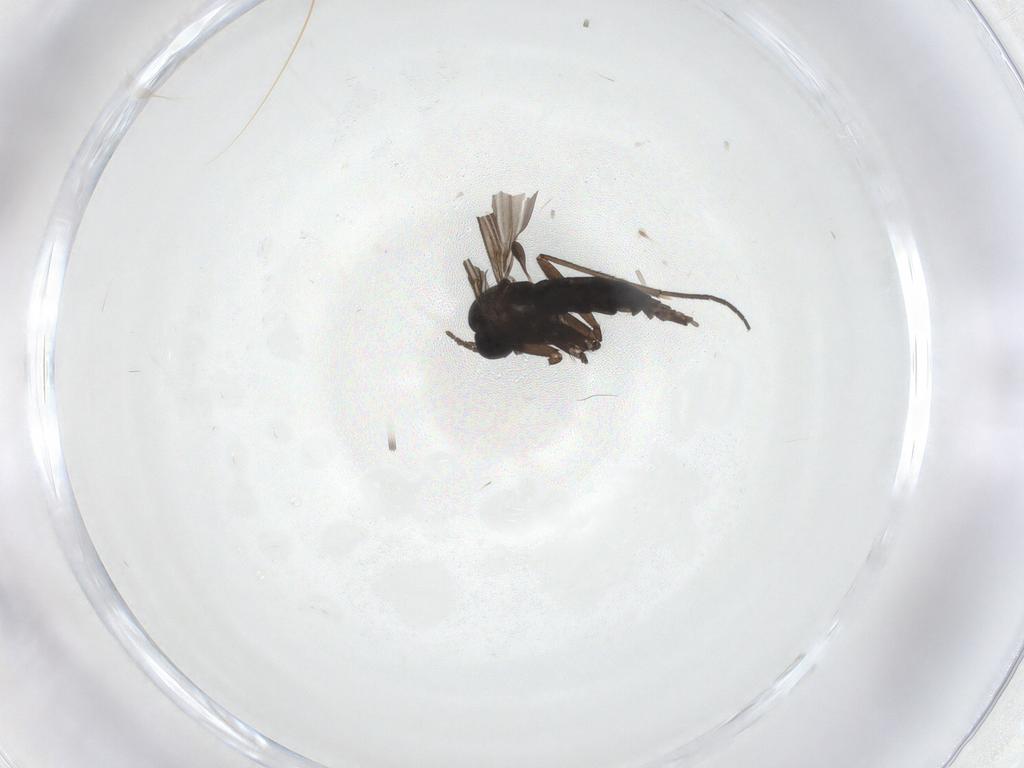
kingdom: Animalia
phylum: Arthropoda
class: Insecta
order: Diptera
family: Sciaridae
